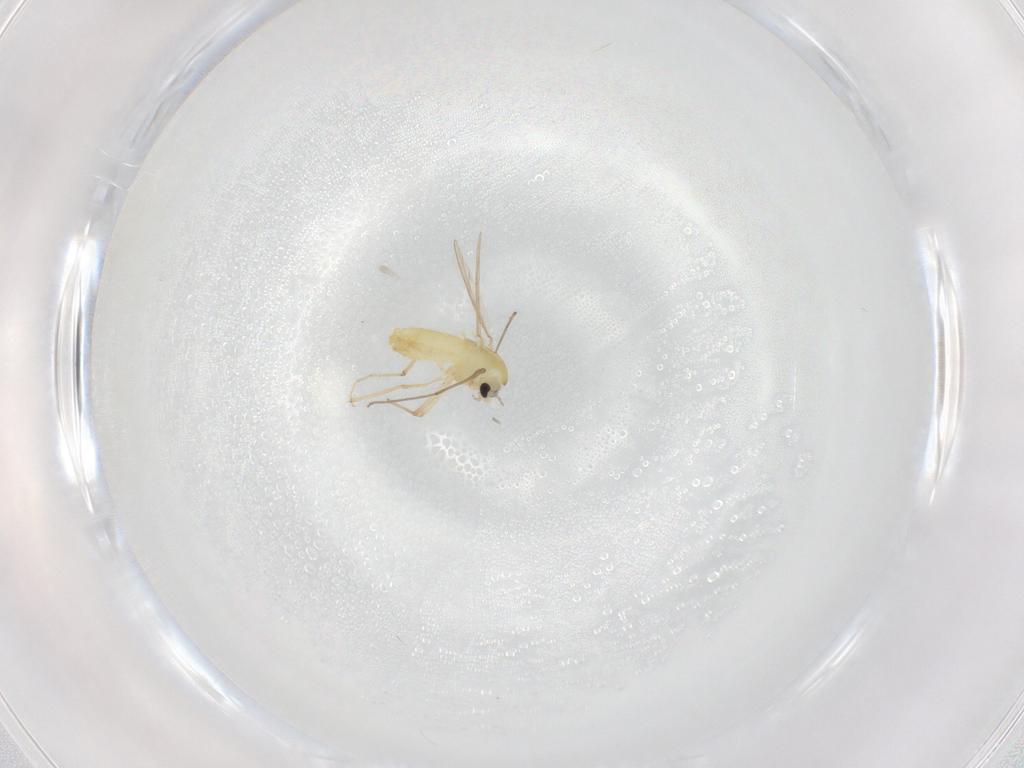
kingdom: Animalia
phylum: Arthropoda
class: Insecta
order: Diptera
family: Chironomidae
